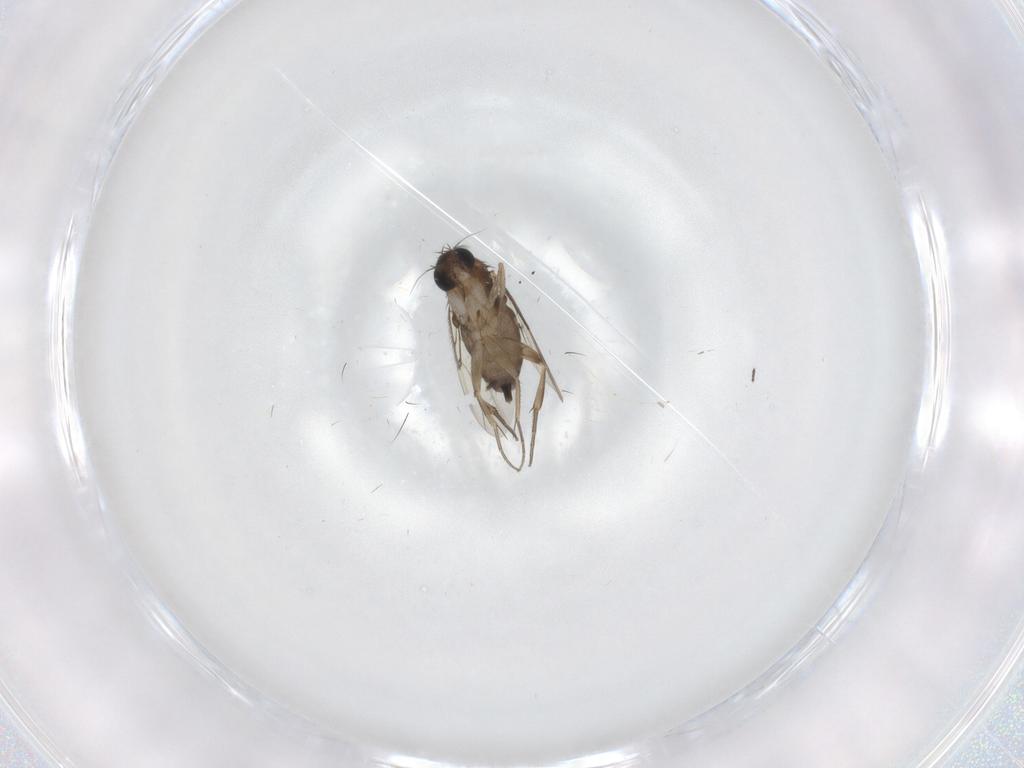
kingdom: Animalia
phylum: Arthropoda
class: Insecta
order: Diptera
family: Phoridae
